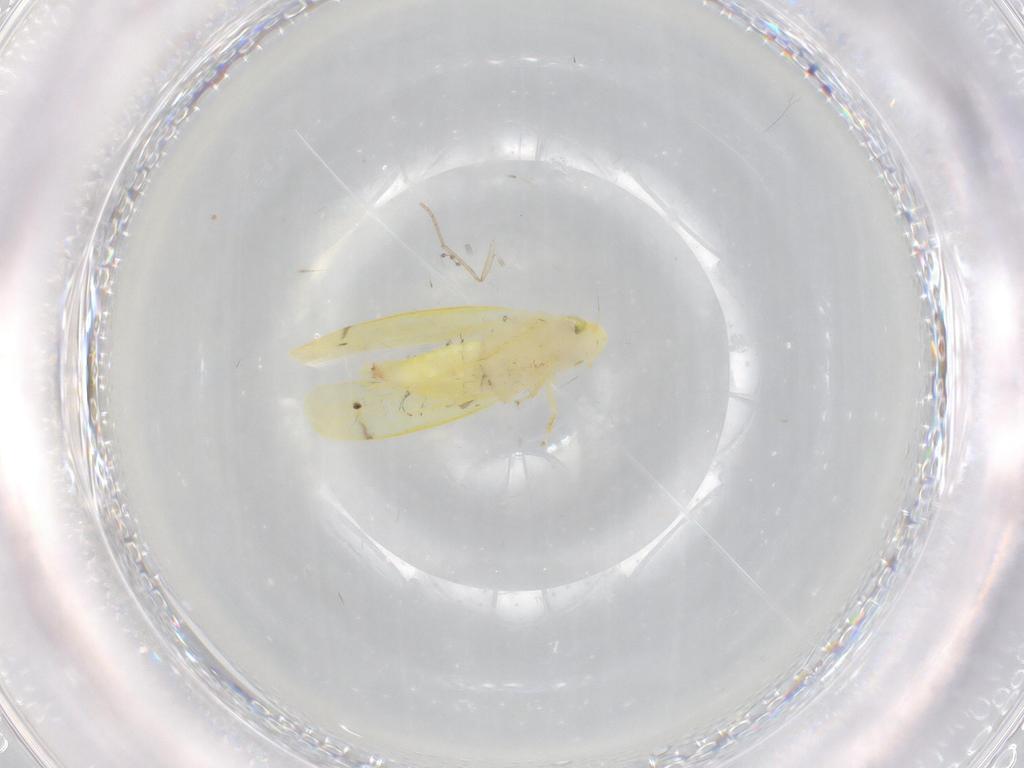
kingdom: Animalia
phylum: Arthropoda
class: Insecta
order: Hemiptera
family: Cicadellidae
